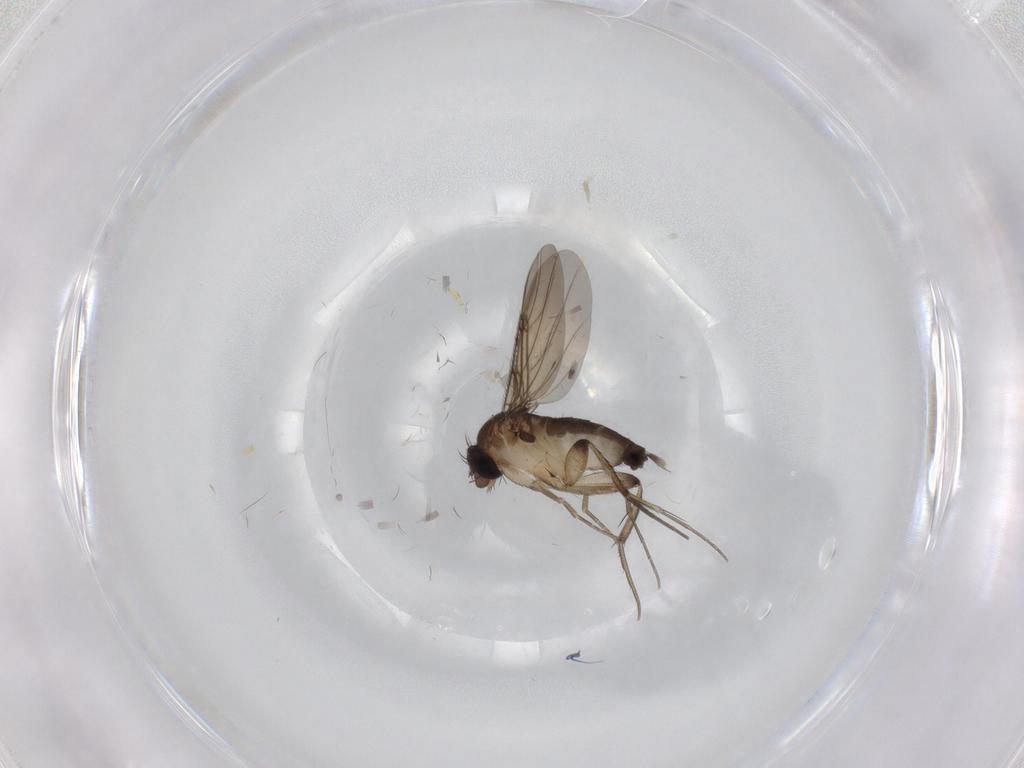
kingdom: Animalia
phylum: Arthropoda
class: Insecta
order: Diptera
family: Phoridae
